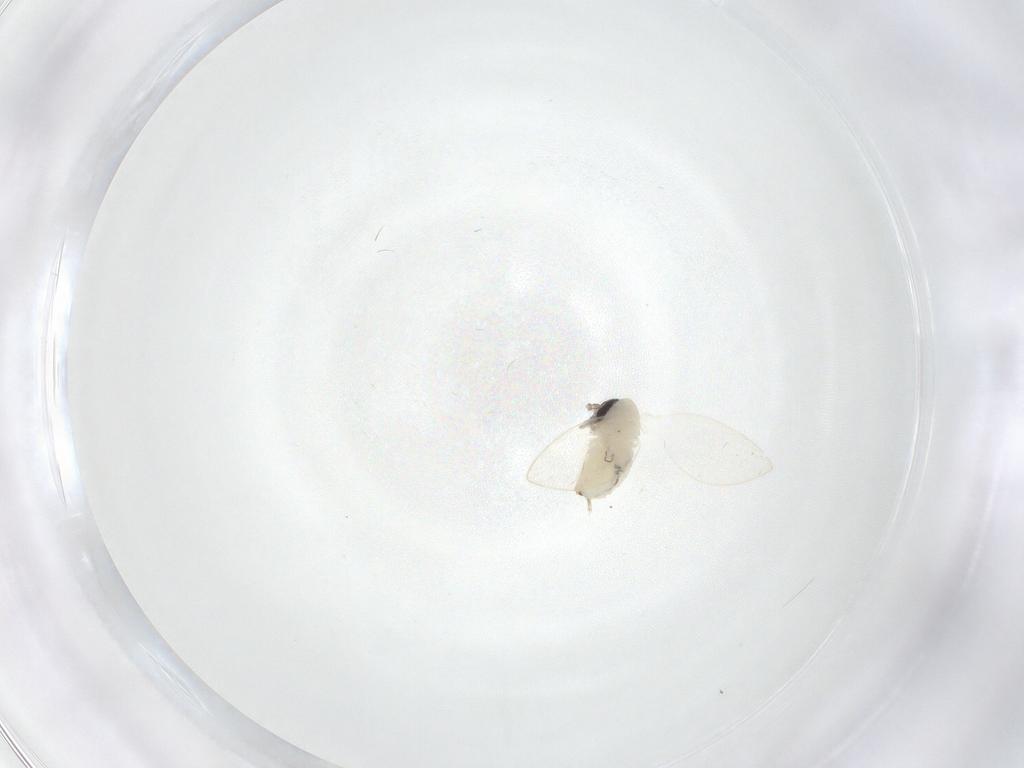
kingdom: Animalia
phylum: Arthropoda
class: Insecta
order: Diptera
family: Psychodidae
